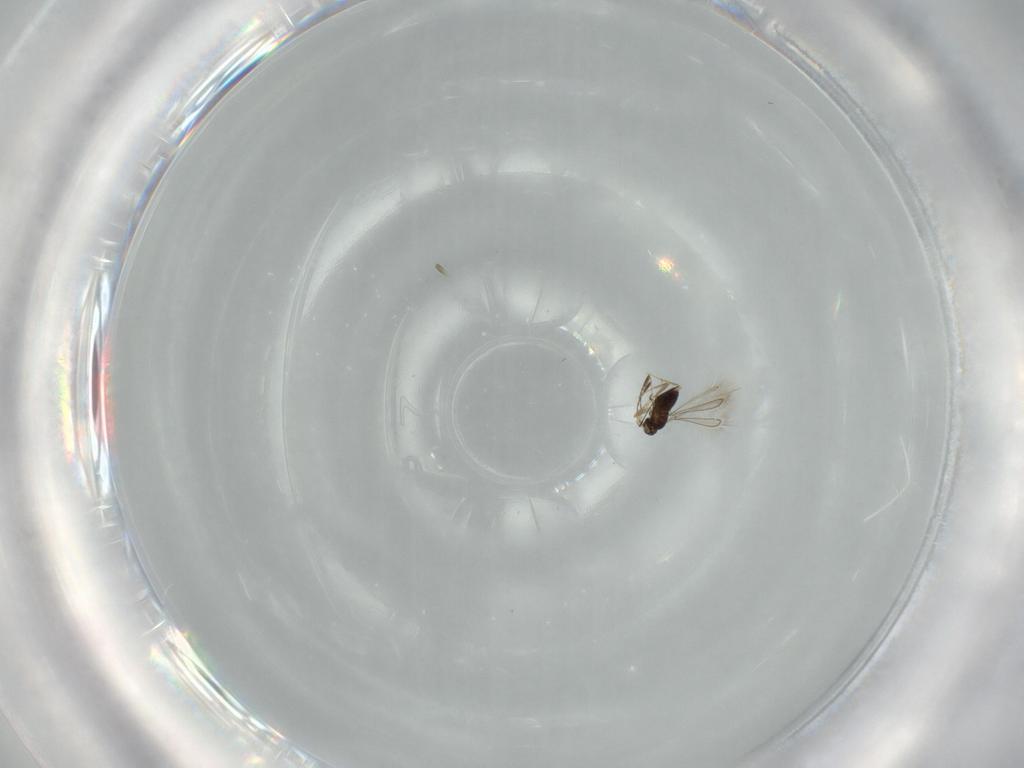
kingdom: Animalia
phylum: Arthropoda
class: Insecta
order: Hymenoptera
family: Ichneumonidae
